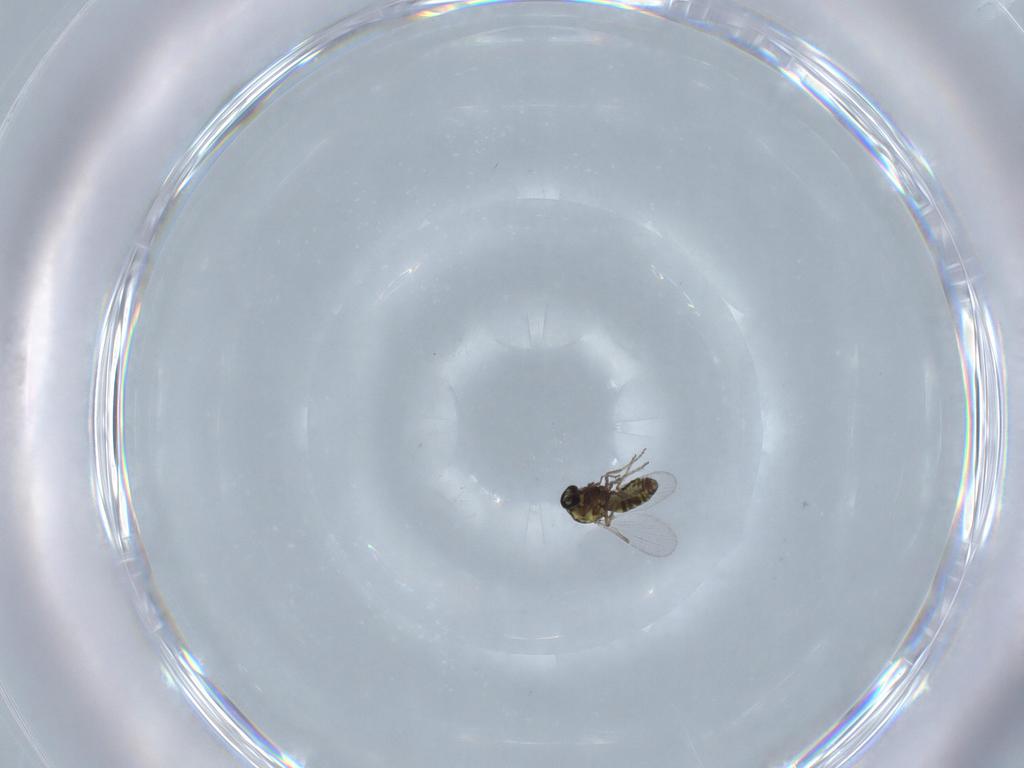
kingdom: Animalia
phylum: Arthropoda
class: Insecta
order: Diptera
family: Ceratopogonidae
